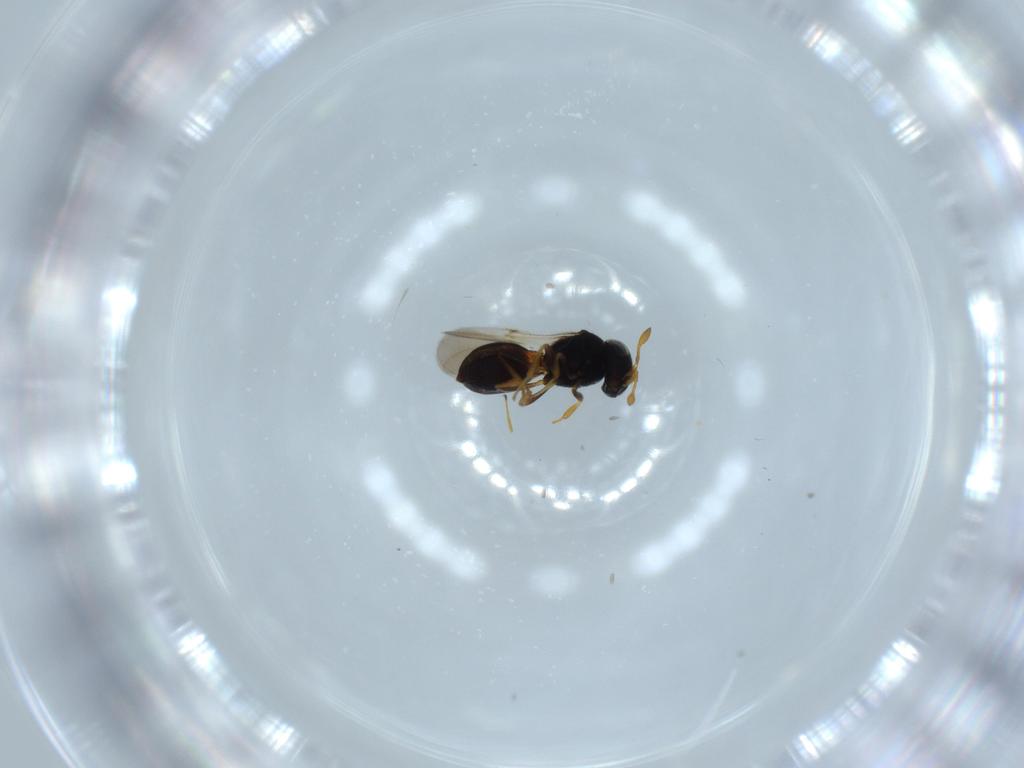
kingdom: Animalia
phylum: Arthropoda
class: Insecta
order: Hymenoptera
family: Scelionidae
